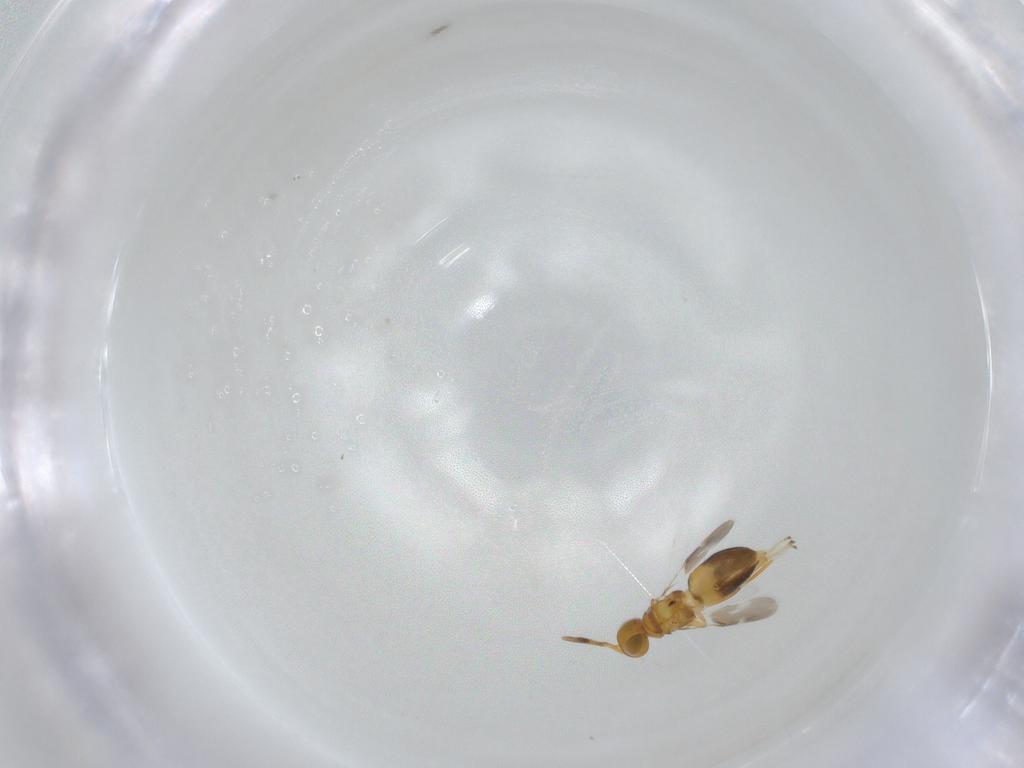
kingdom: Animalia
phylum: Arthropoda
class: Insecta
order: Hymenoptera
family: Encyrtidae
